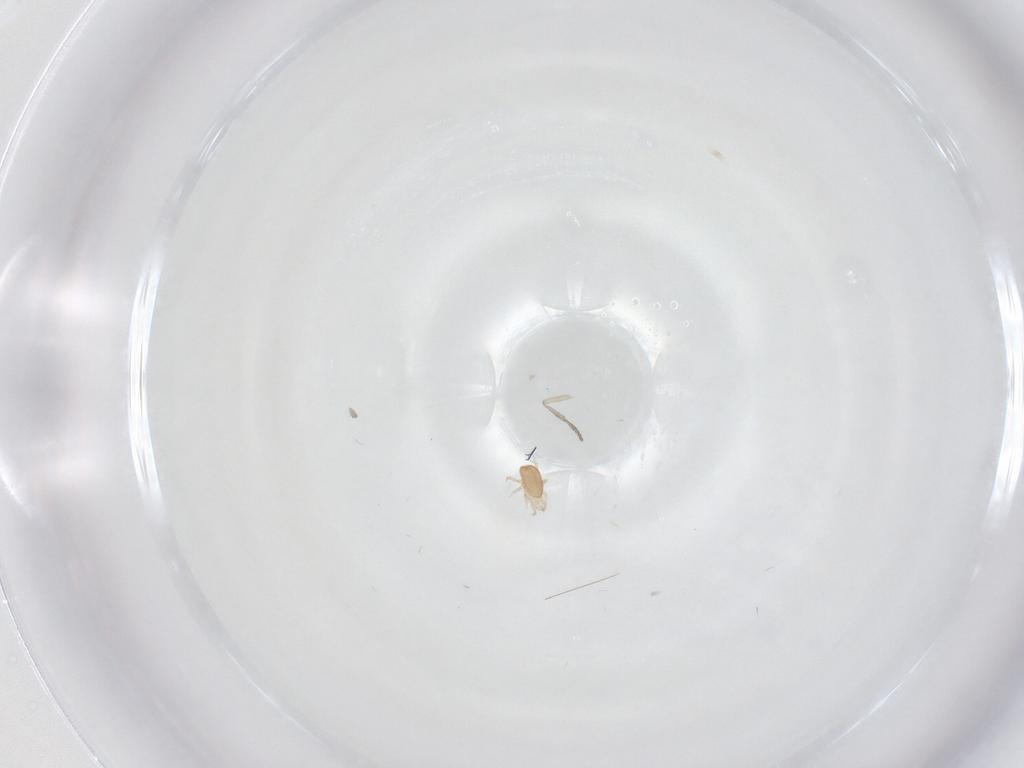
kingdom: Animalia
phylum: Arthropoda
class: Arachnida
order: Mesostigmata
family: Ascidae
